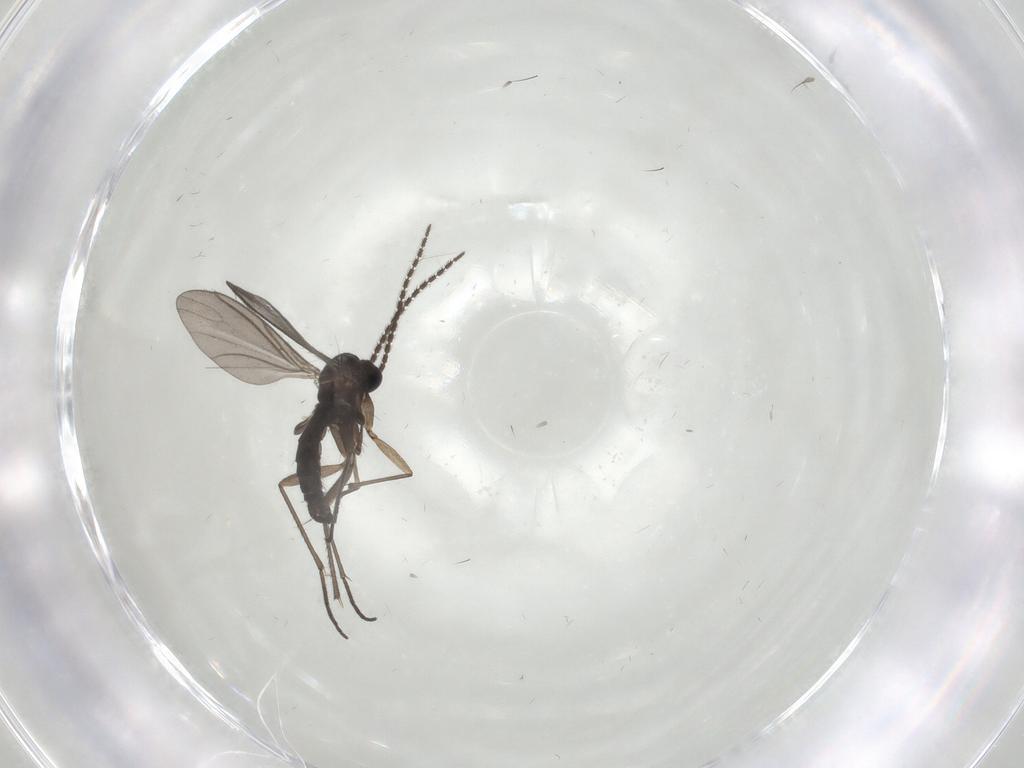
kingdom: Animalia
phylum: Arthropoda
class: Insecta
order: Diptera
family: Sciaridae
